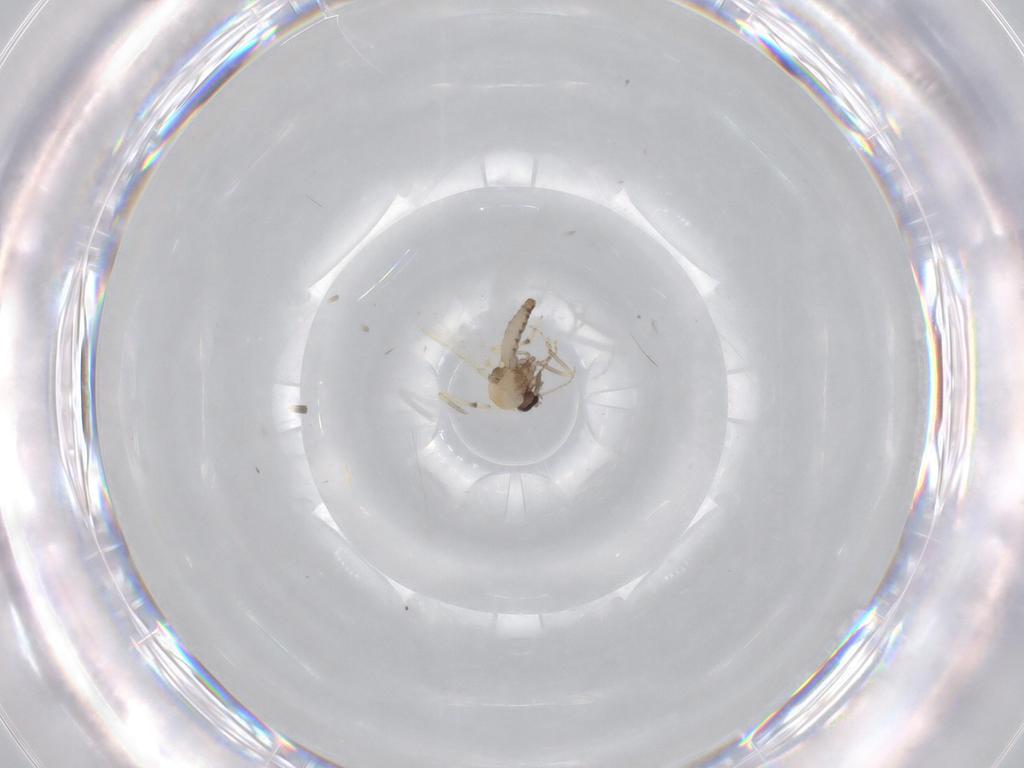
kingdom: Animalia
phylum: Arthropoda
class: Insecta
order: Diptera
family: Ceratopogonidae
